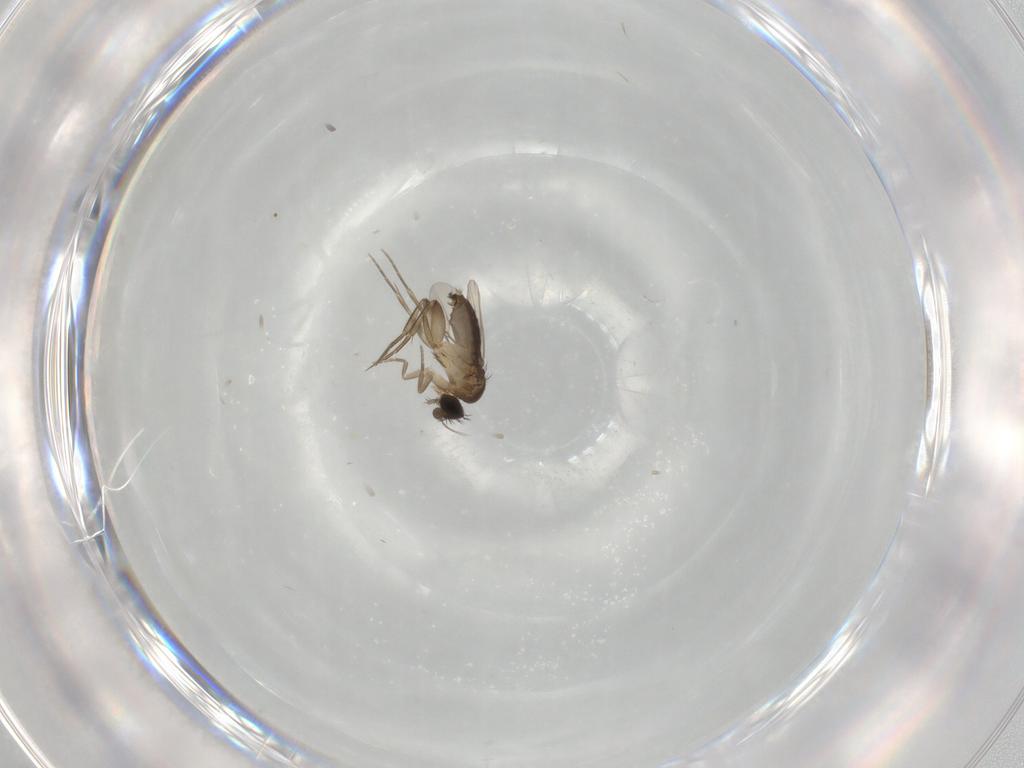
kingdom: Animalia
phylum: Arthropoda
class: Insecta
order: Diptera
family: Phoridae
